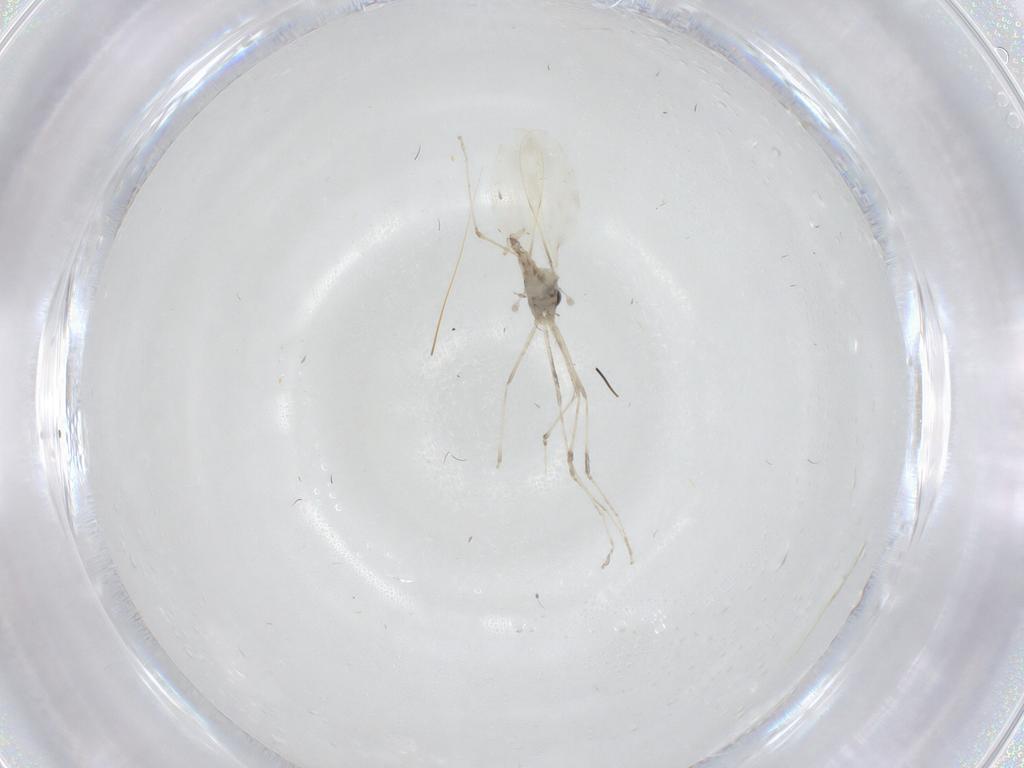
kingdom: Animalia
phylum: Arthropoda
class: Insecta
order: Diptera
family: Cecidomyiidae
